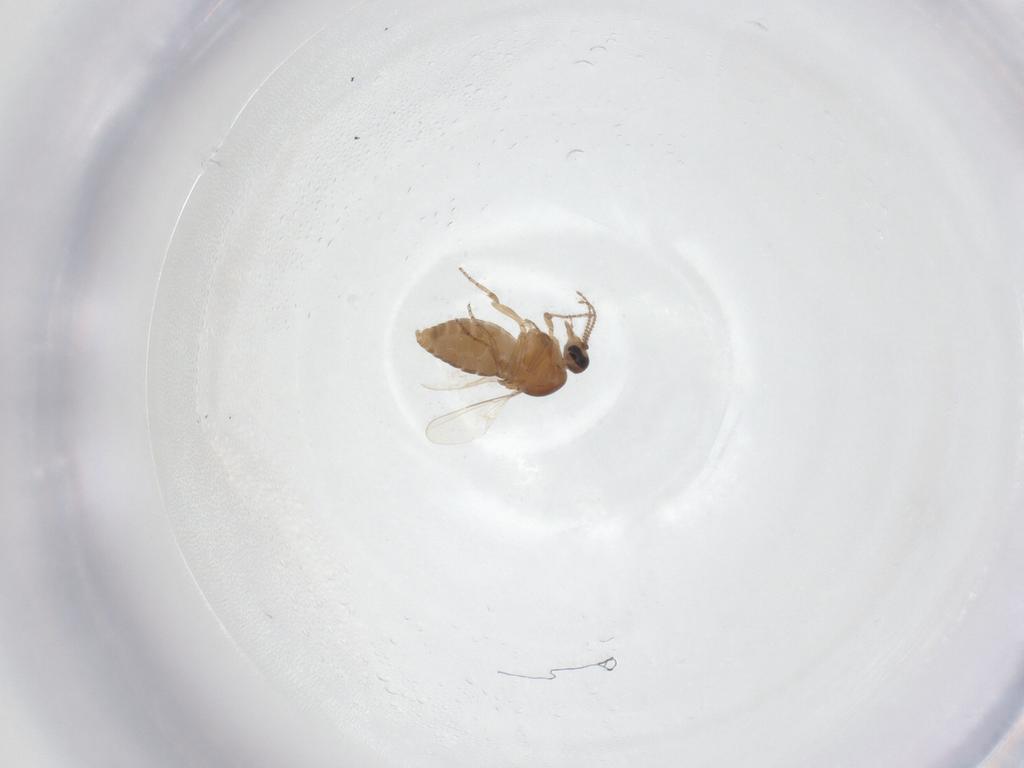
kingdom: Animalia
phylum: Arthropoda
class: Insecta
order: Diptera
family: Ceratopogonidae
